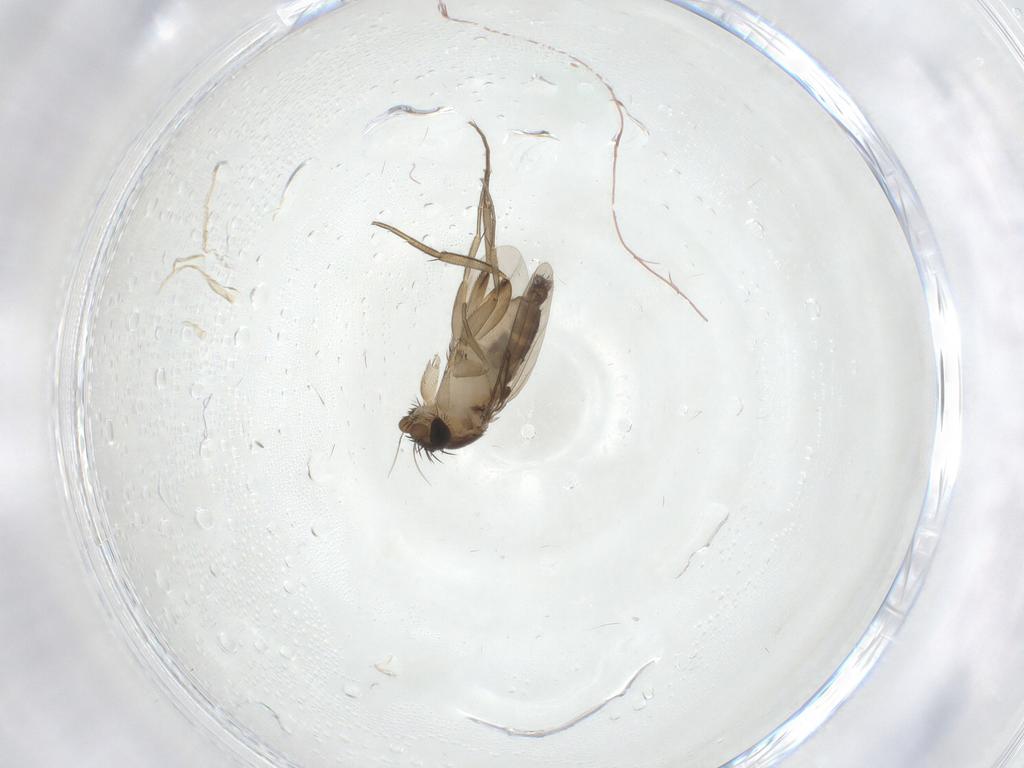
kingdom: Animalia
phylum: Arthropoda
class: Insecta
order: Diptera
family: Phoridae
